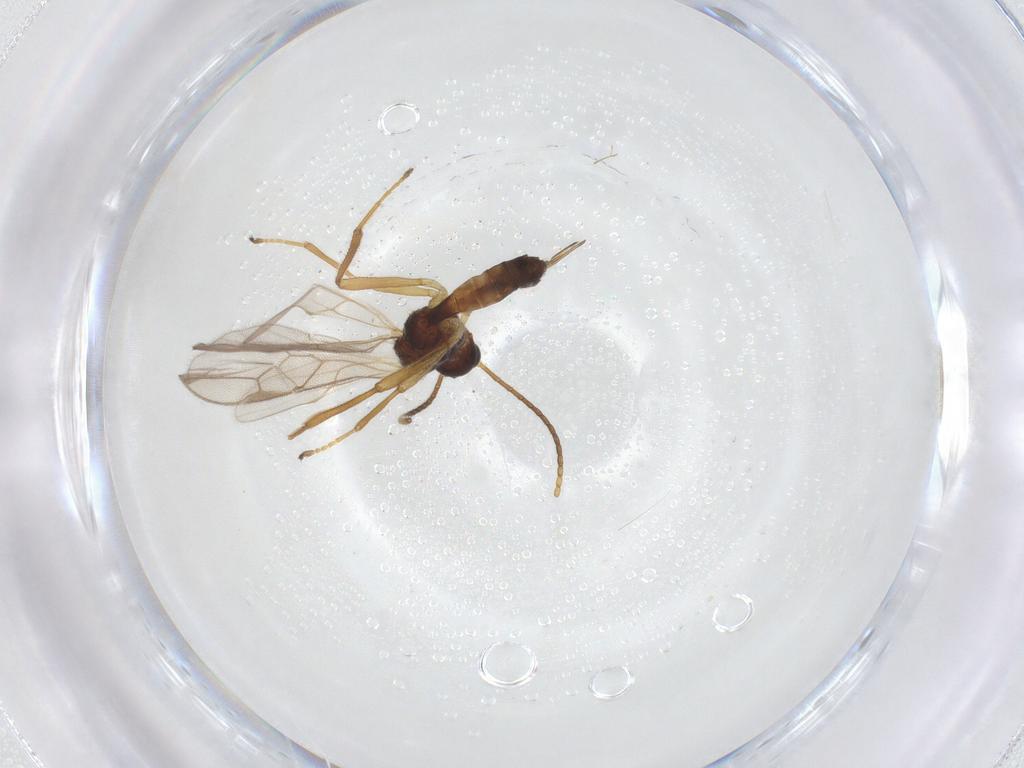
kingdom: Animalia
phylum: Arthropoda
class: Insecta
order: Hymenoptera
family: Braconidae
